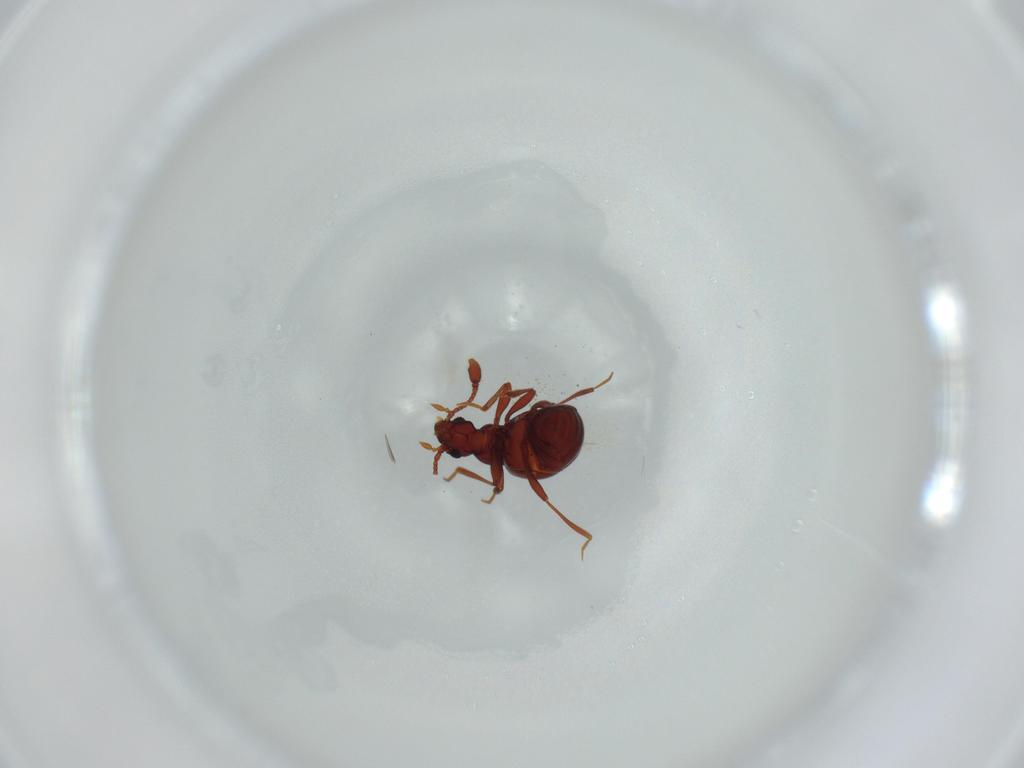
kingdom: Animalia
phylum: Arthropoda
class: Insecta
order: Coleoptera
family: Staphylinidae
